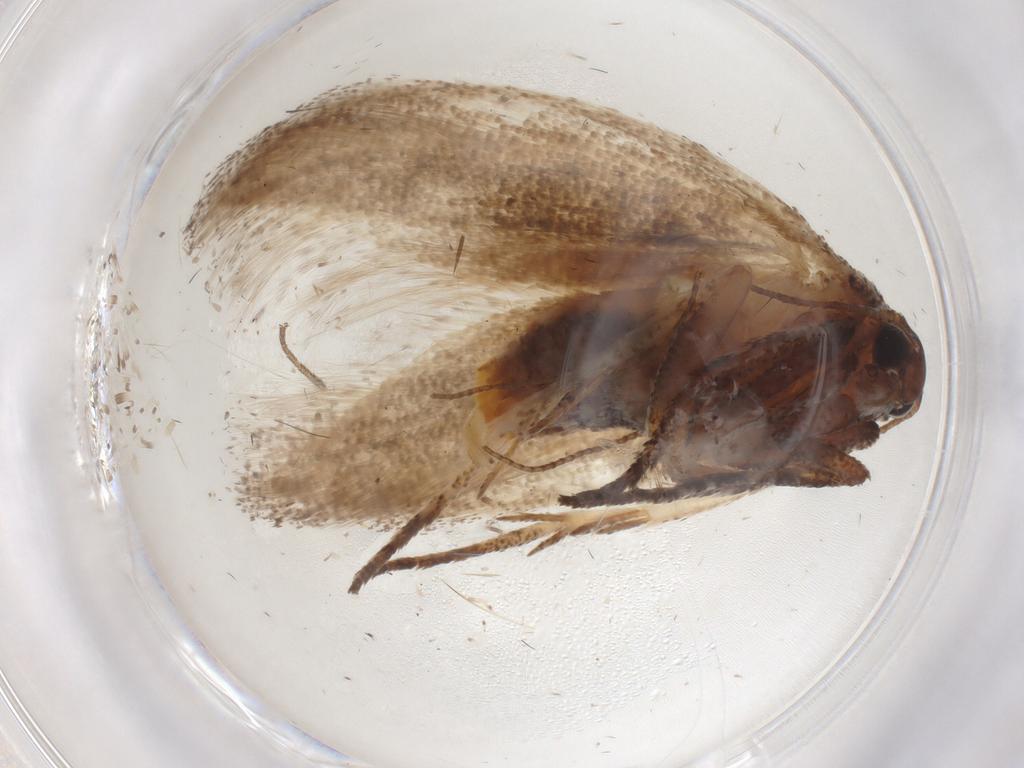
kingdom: Animalia
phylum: Arthropoda
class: Insecta
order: Lepidoptera
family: Cosmopterigidae
